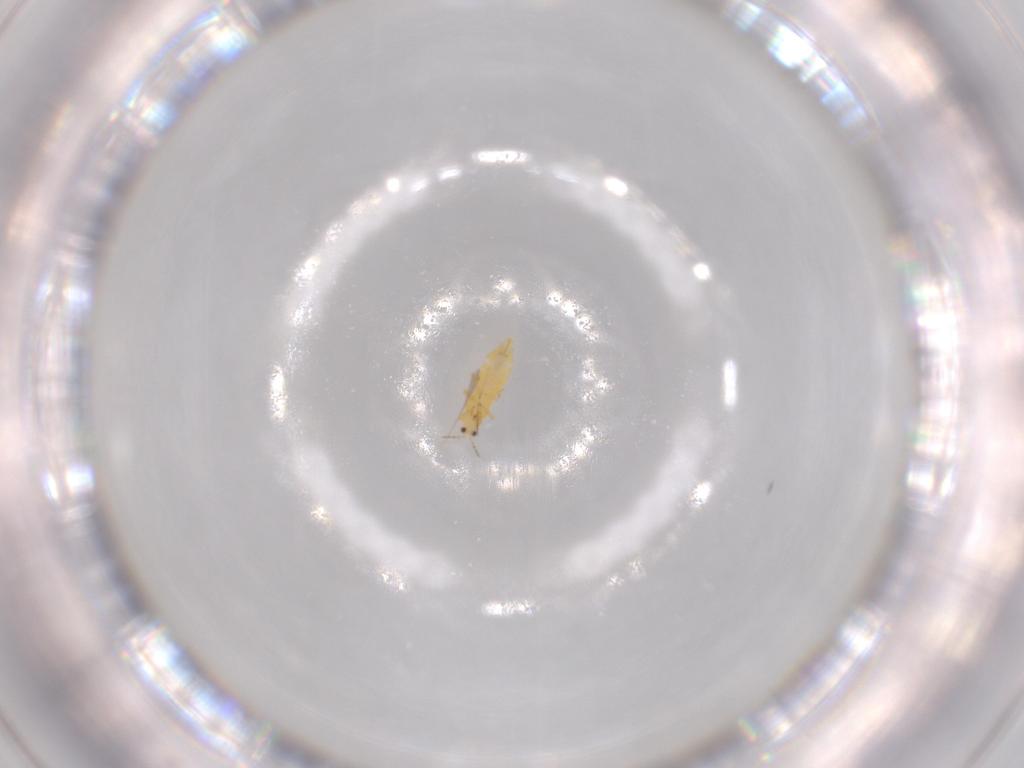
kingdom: Animalia
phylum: Arthropoda
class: Insecta
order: Thysanoptera
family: Thripidae
